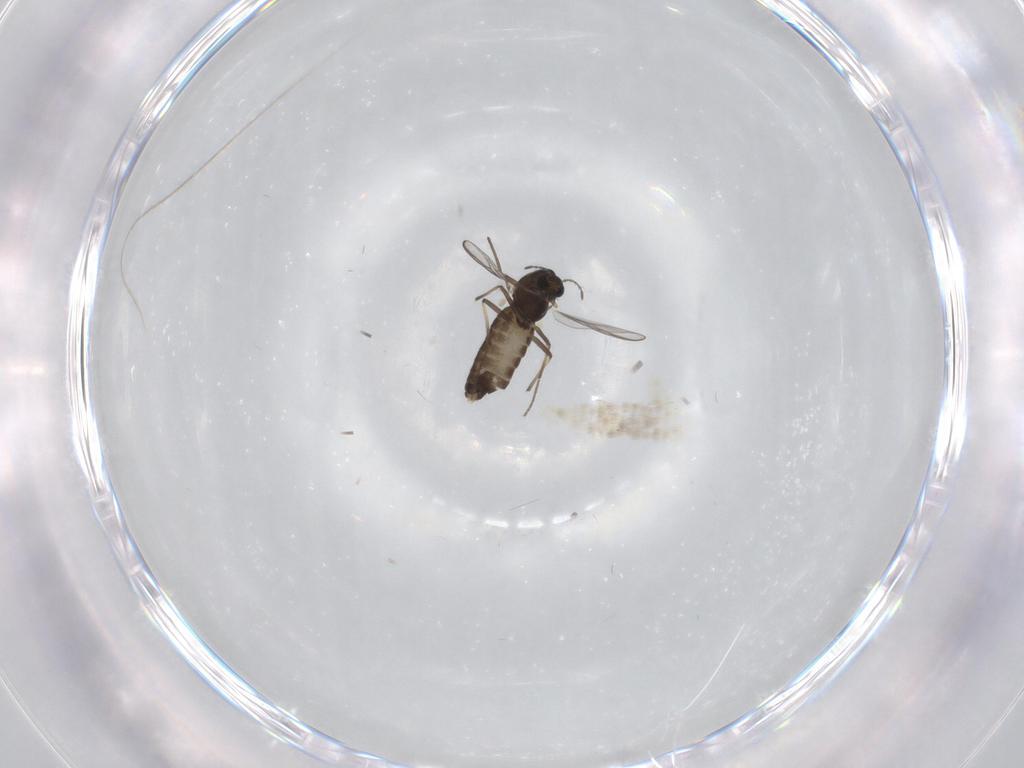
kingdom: Animalia
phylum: Arthropoda
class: Insecta
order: Diptera
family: Chironomidae
